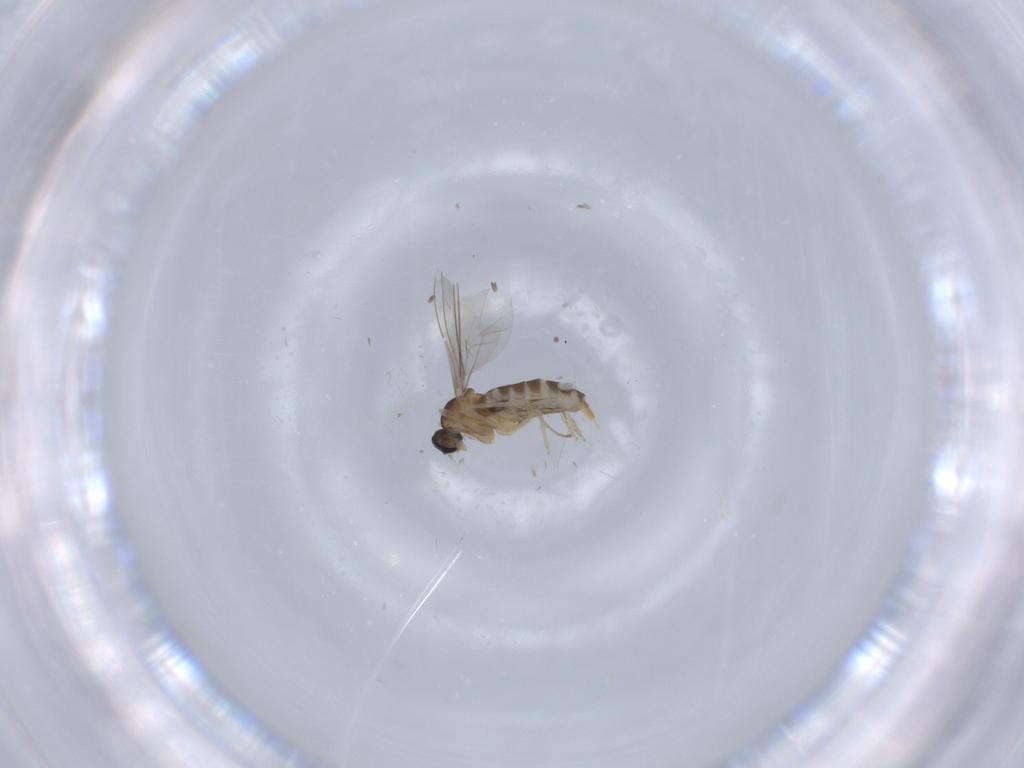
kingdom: Animalia
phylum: Arthropoda
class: Insecta
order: Diptera
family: Cecidomyiidae
